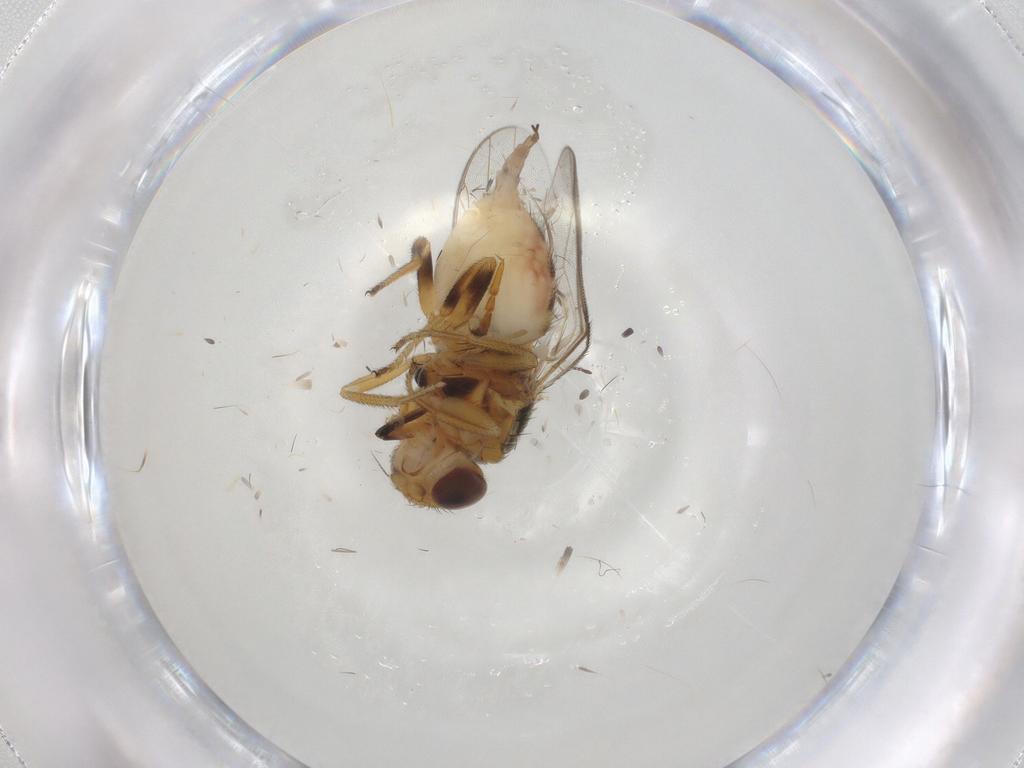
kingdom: Animalia
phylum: Arthropoda
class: Insecta
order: Diptera
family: Chloropidae
